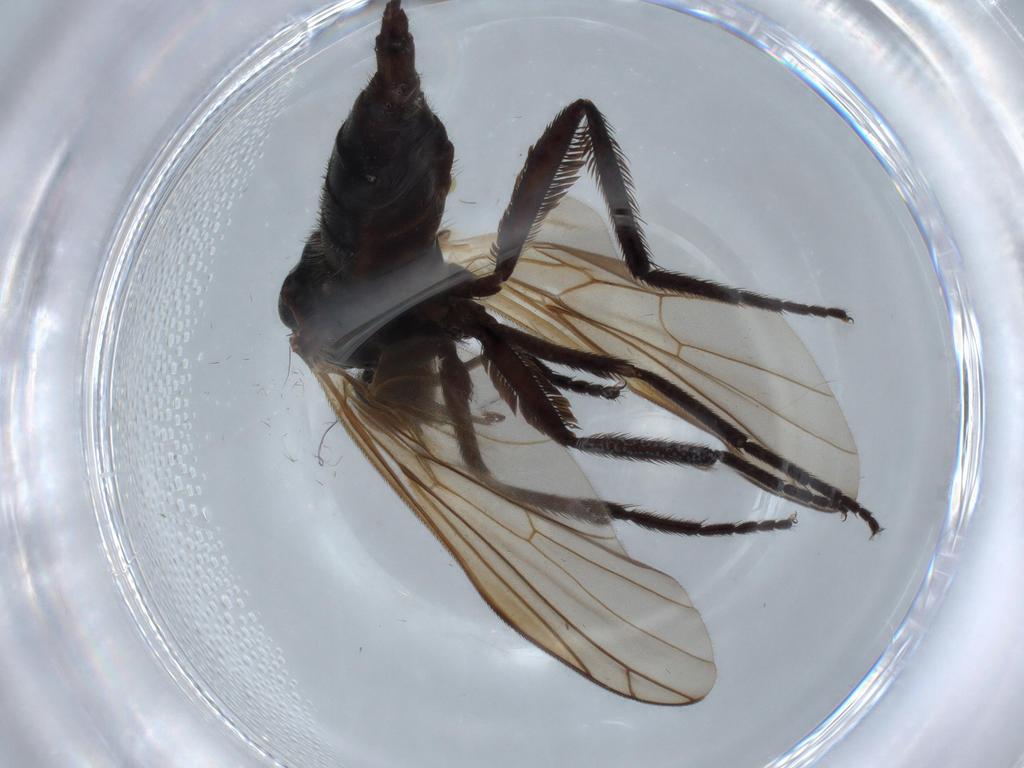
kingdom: Animalia
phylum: Arthropoda
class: Insecta
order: Diptera
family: Empididae
